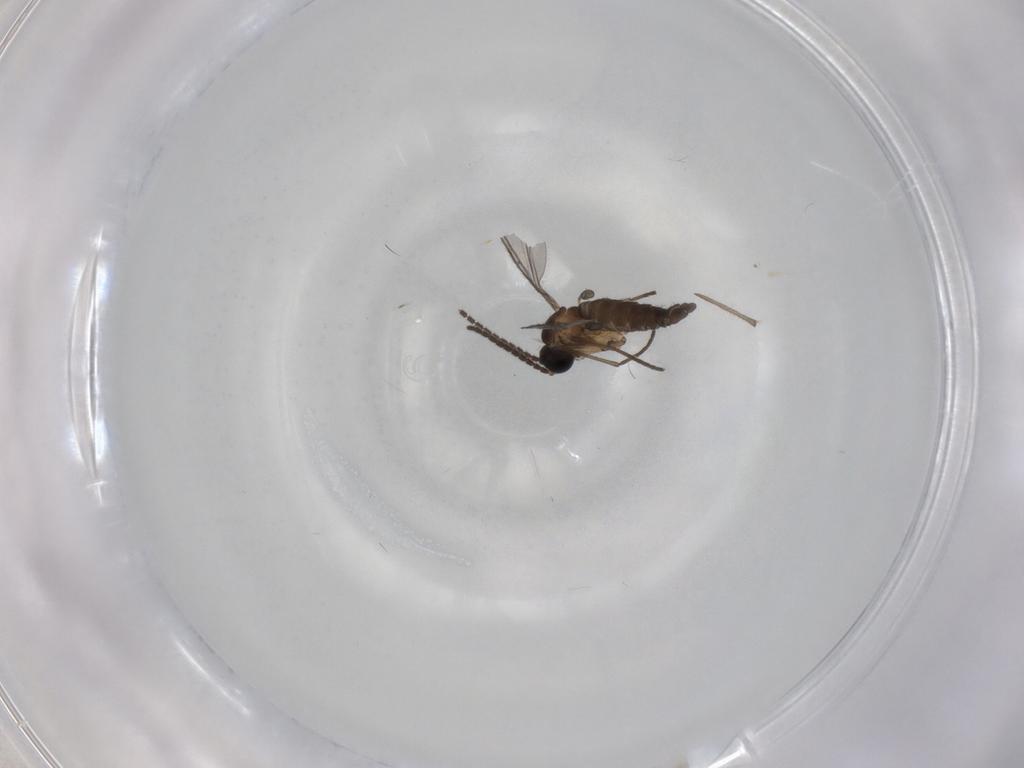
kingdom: Animalia
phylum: Arthropoda
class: Insecta
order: Diptera
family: Sciaridae
